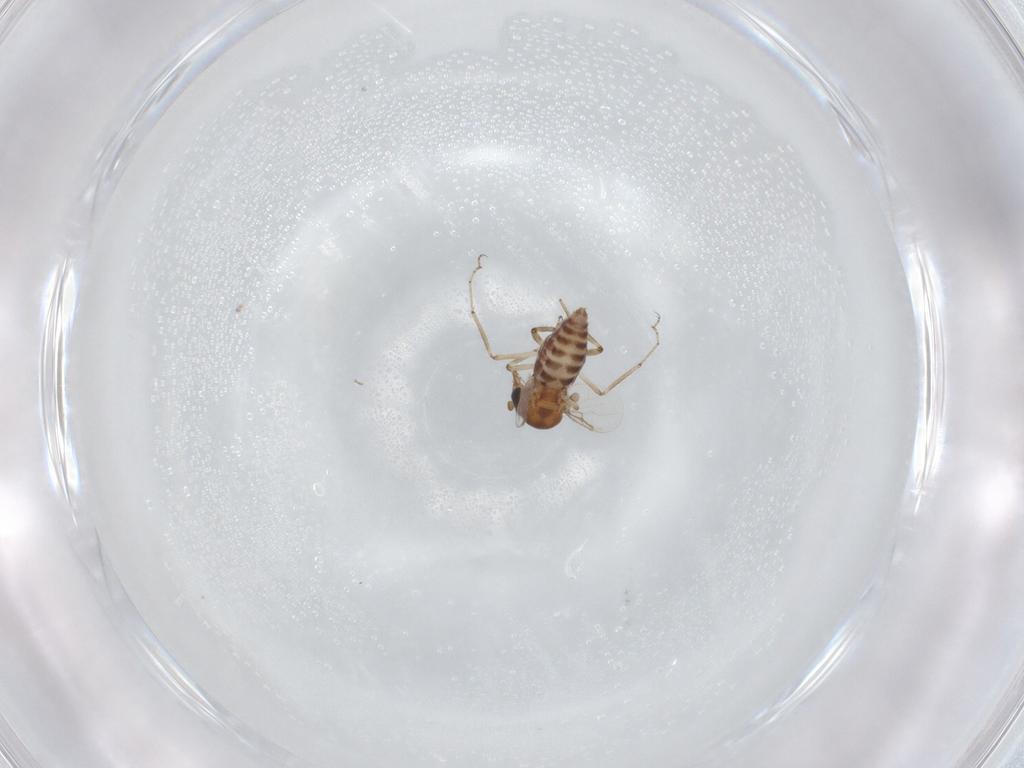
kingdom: Animalia
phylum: Arthropoda
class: Insecta
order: Diptera
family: Ceratopogonidae
